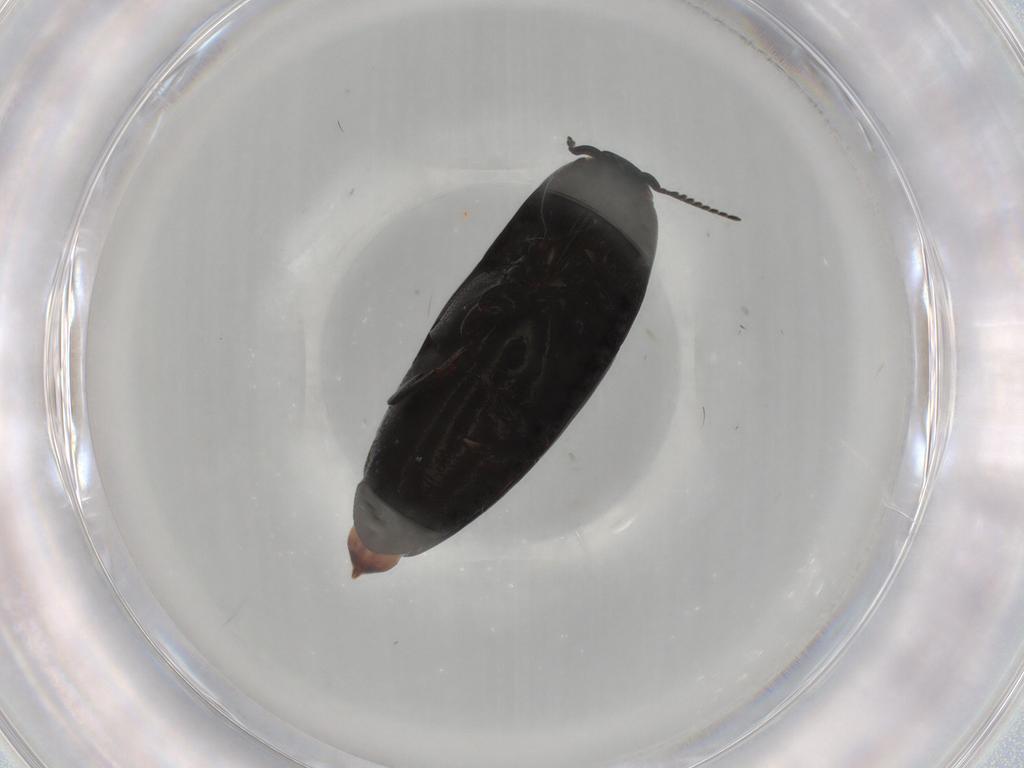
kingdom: Animalia
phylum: Arthropoda
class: Insecta
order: Coleoptera
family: Elateridae
